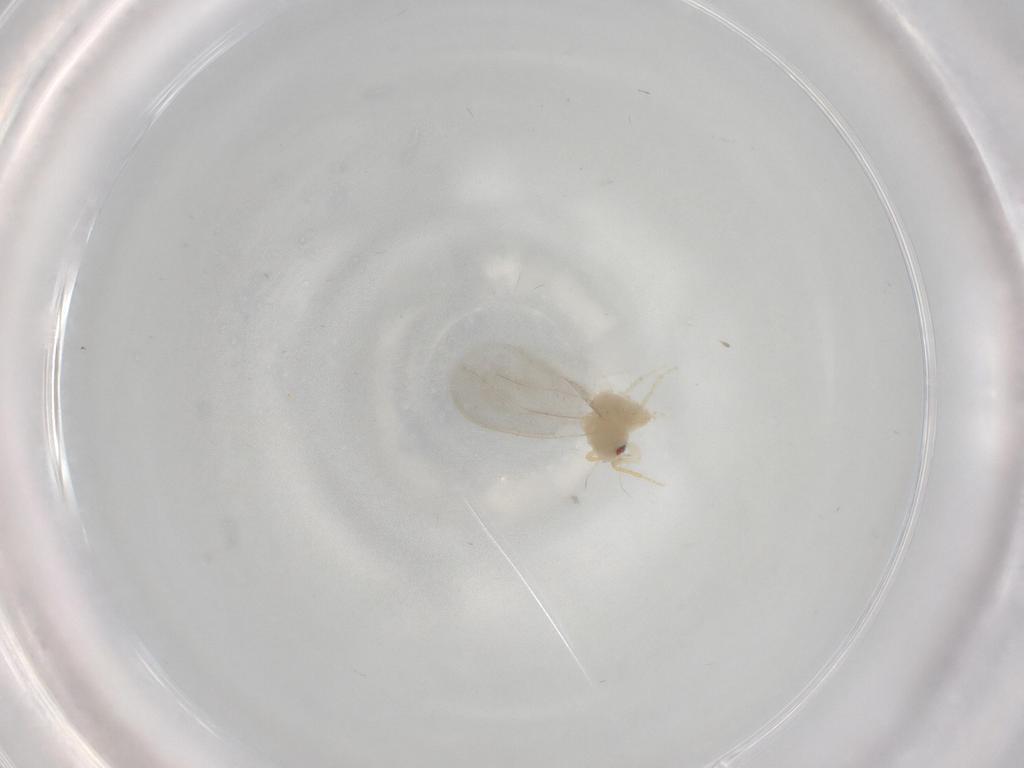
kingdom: Animalia
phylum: Arthropoda
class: Insecta
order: Hemiptera
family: Aleyrodidae
